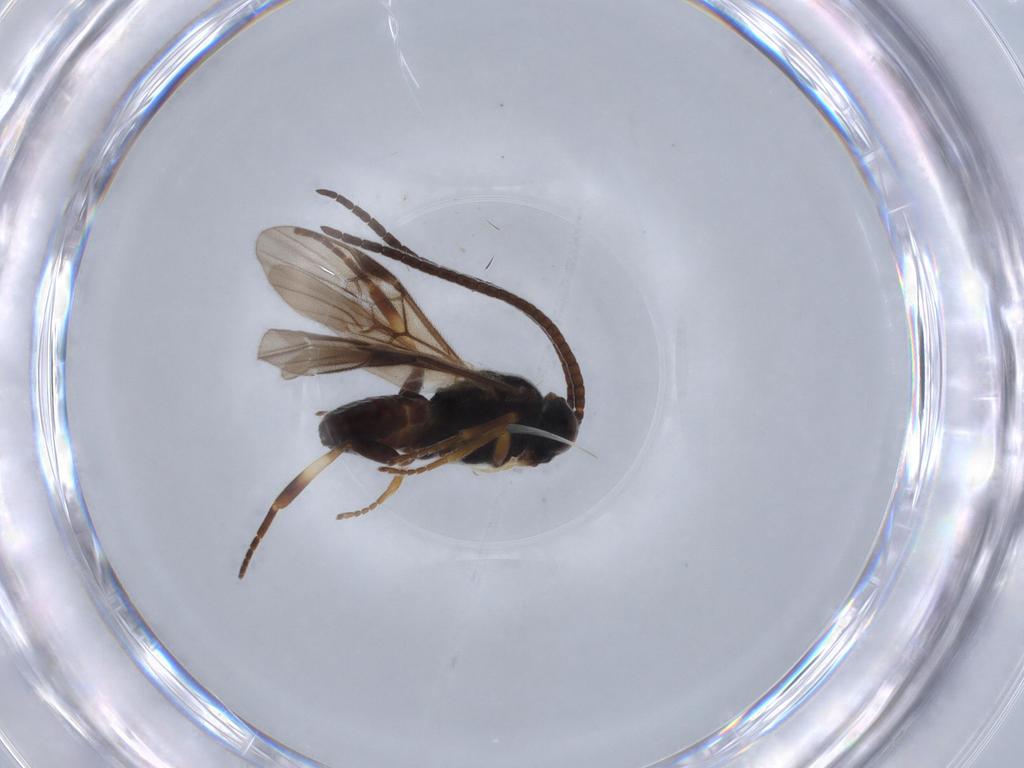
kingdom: Animalia
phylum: Arthropoda
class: Insecta
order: Hymenoptera
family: Braconidae
